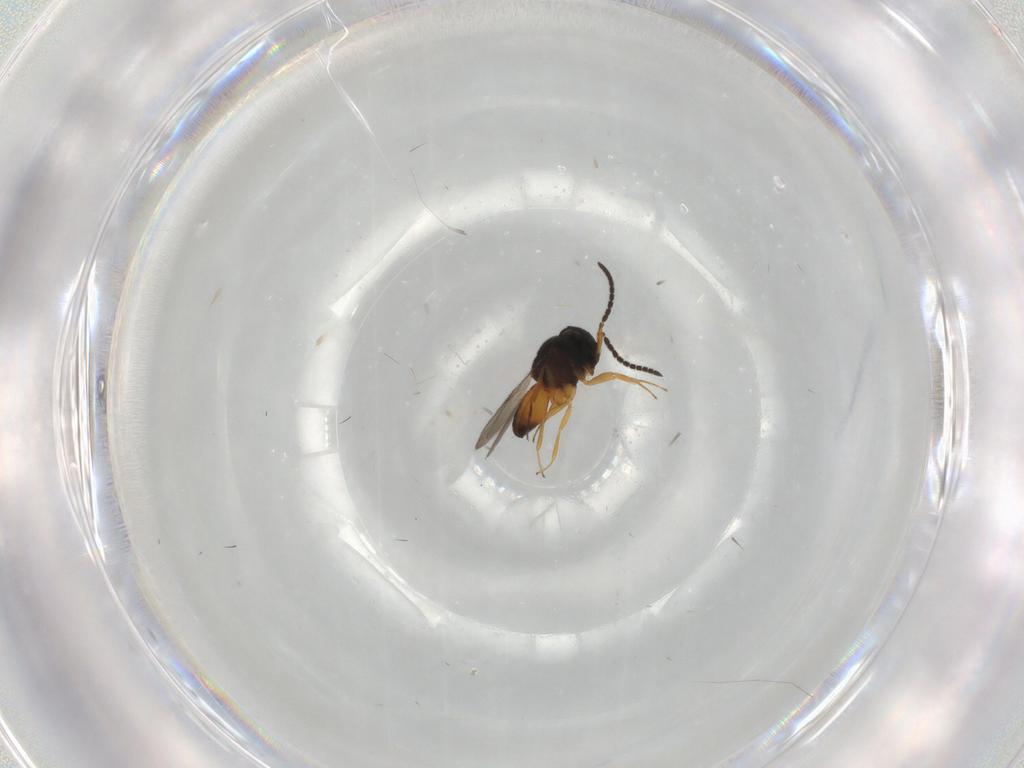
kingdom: Animalia
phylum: Arthropoda
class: Insecta
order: Hymenoptera
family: Scelionidae
